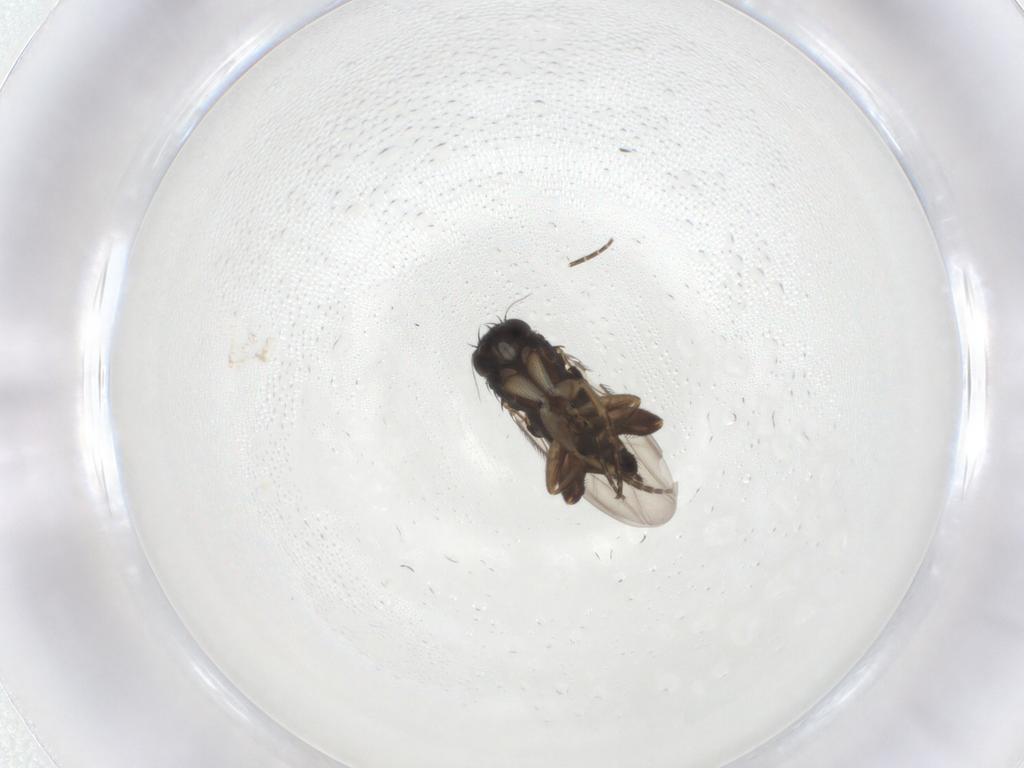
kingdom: Animalia
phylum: Arthropoda
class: Insecta
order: Diptera
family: Phoridae
